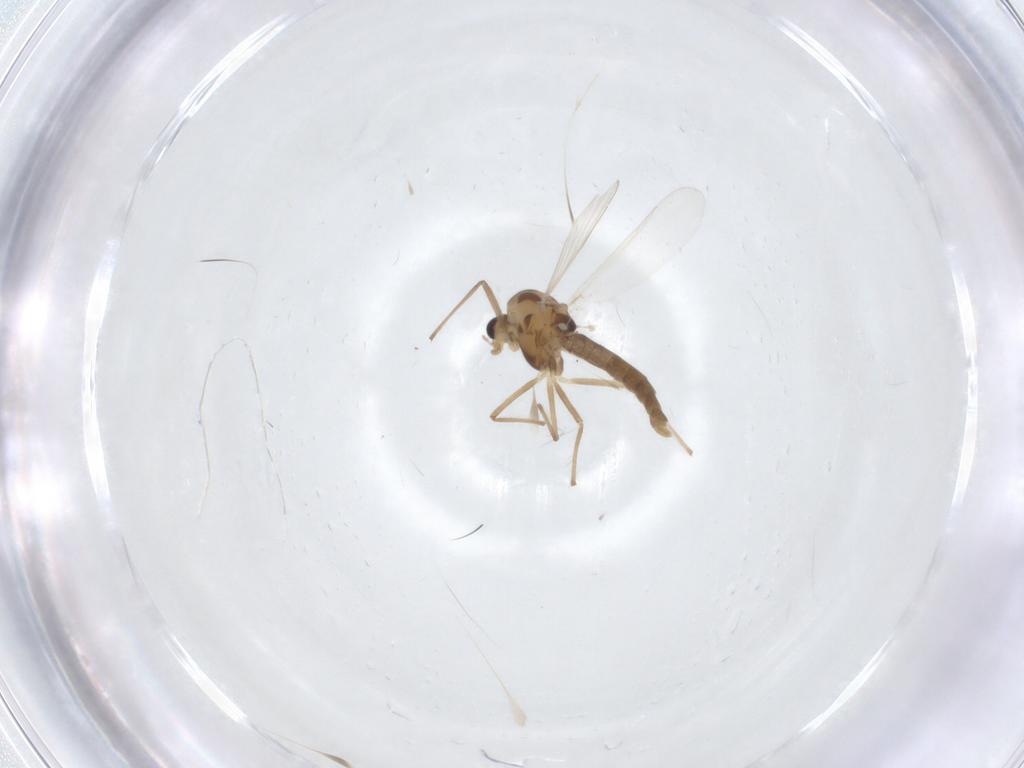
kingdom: Animalia
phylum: Arthropoda
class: Insecta
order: Diptera
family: Chironomidae
